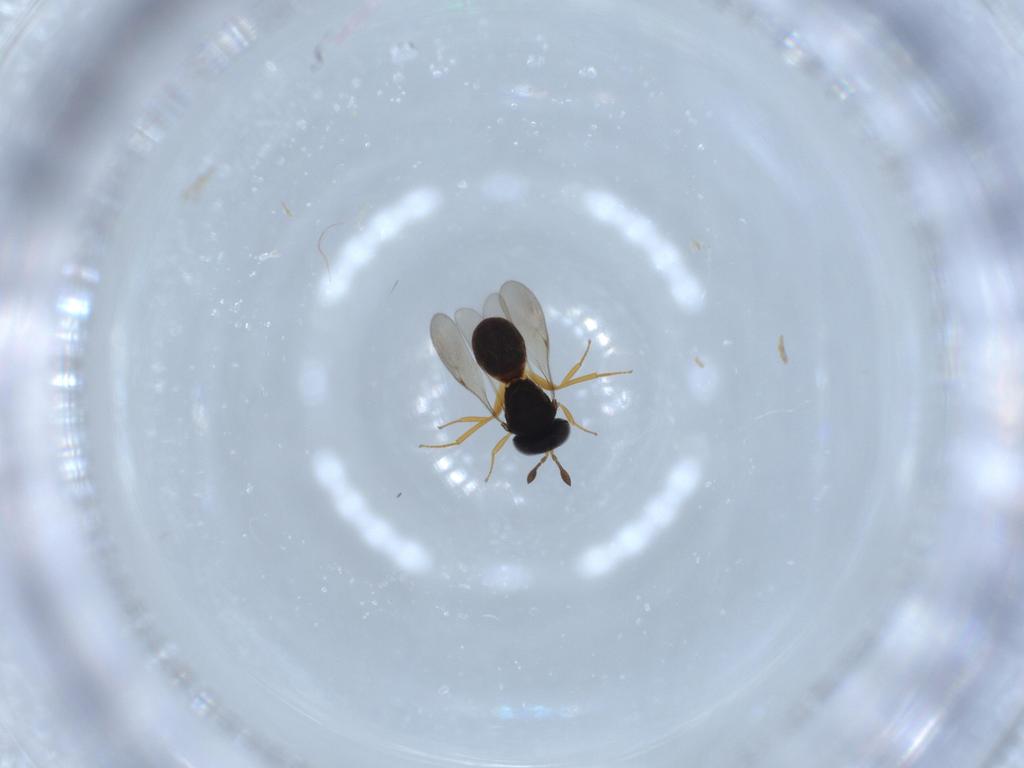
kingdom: Animalia
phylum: Arthropoda
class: Insecta
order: Hymenoptera
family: Scelionidae
